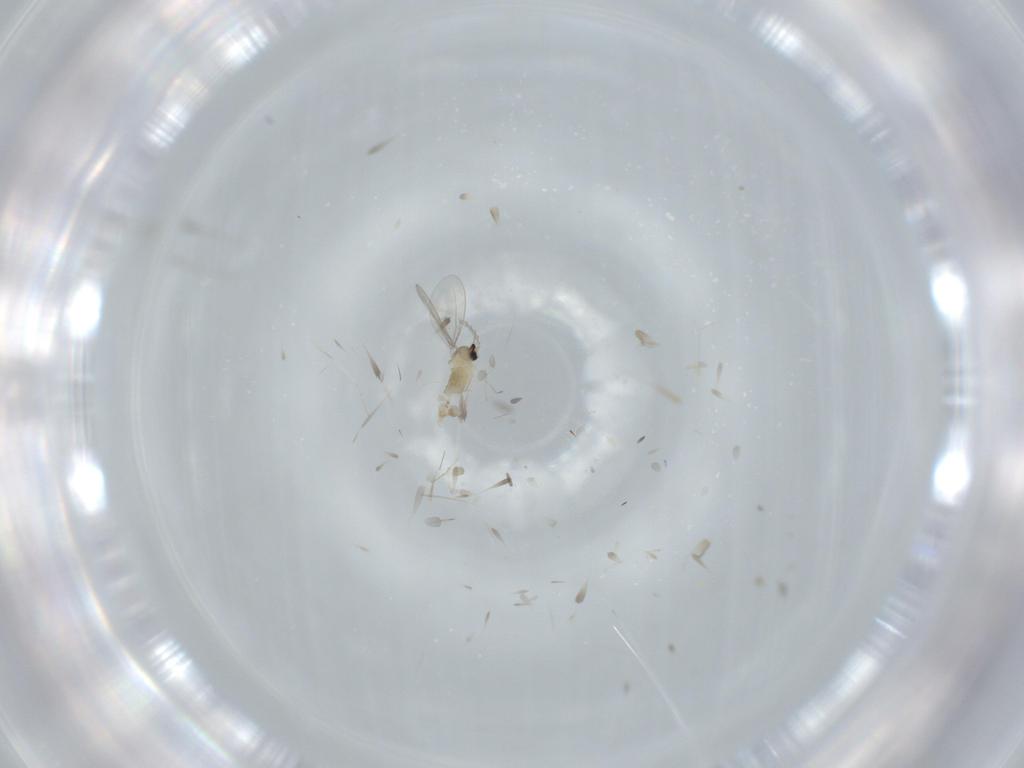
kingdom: Animalia
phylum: Arthropoda
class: Insecta
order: Diptera
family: Cecidomyiidae
